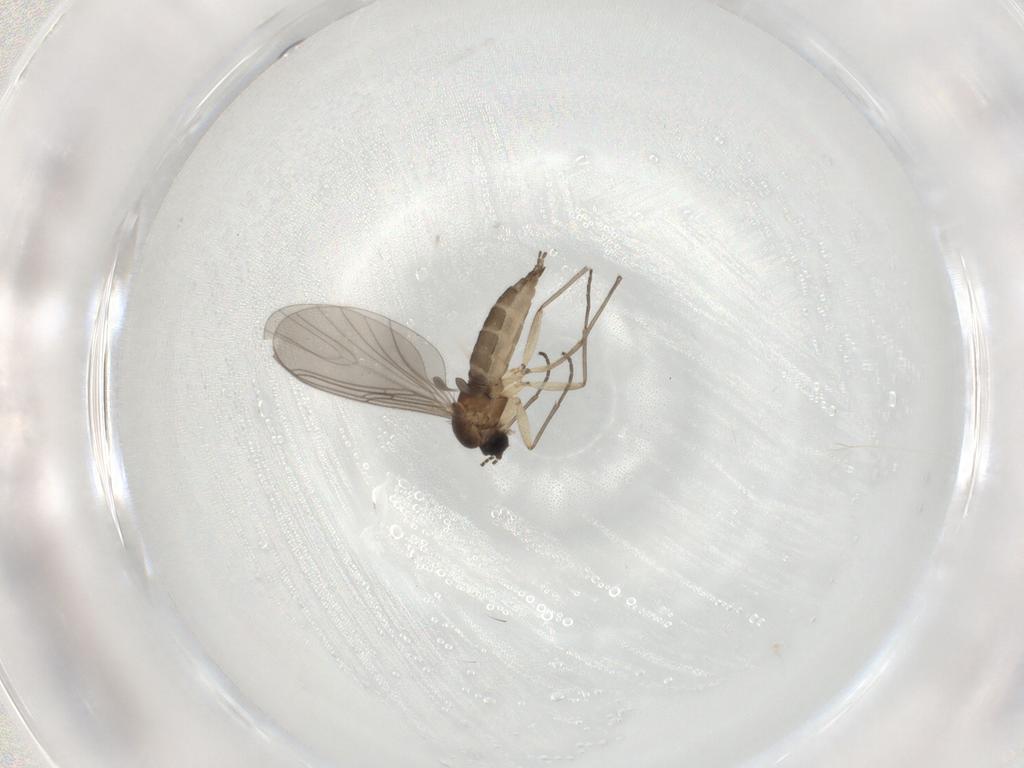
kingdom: Animalia
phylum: Arthropoda
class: Insecta
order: Diptera
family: Sciaridae
